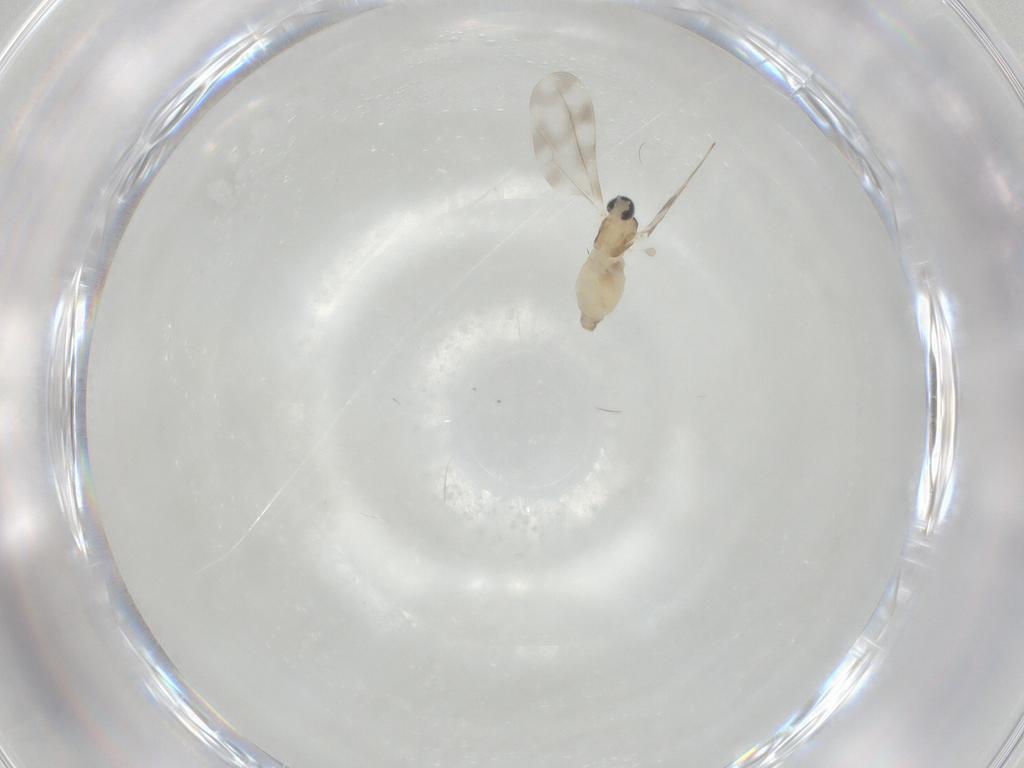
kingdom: Animalia
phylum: Arthropoda
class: Insecta
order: Diptera
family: Cecidomyiidae
